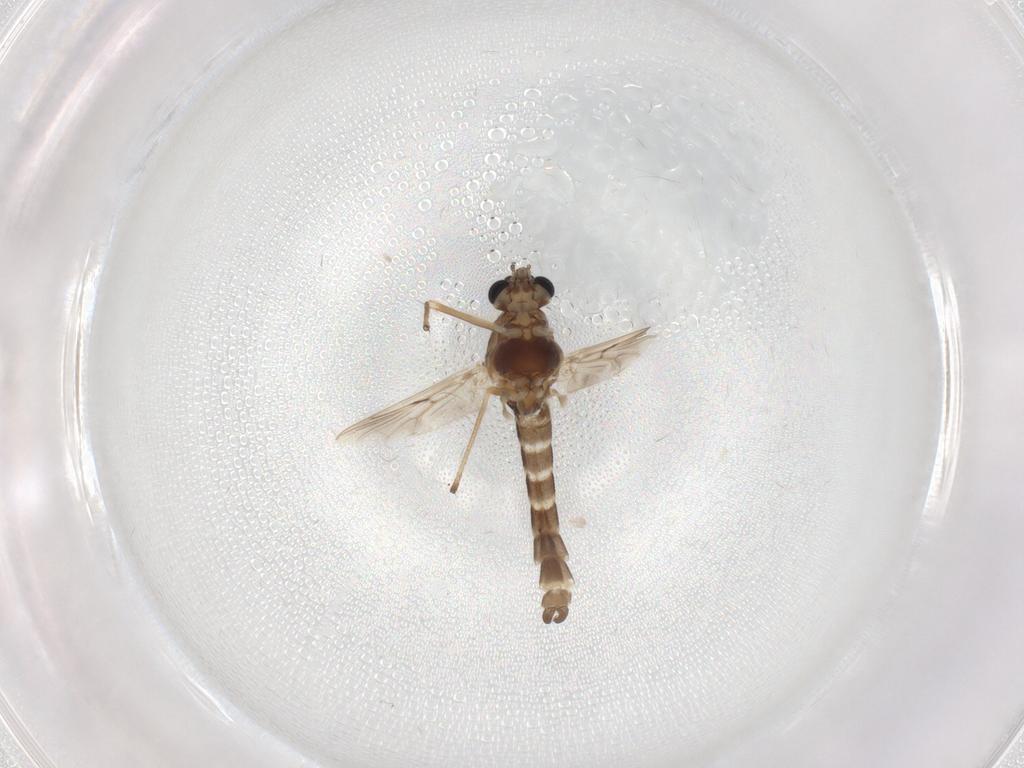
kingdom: Animalia
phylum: Arthropoda
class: Insecta
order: Diptera
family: Chironomidae
